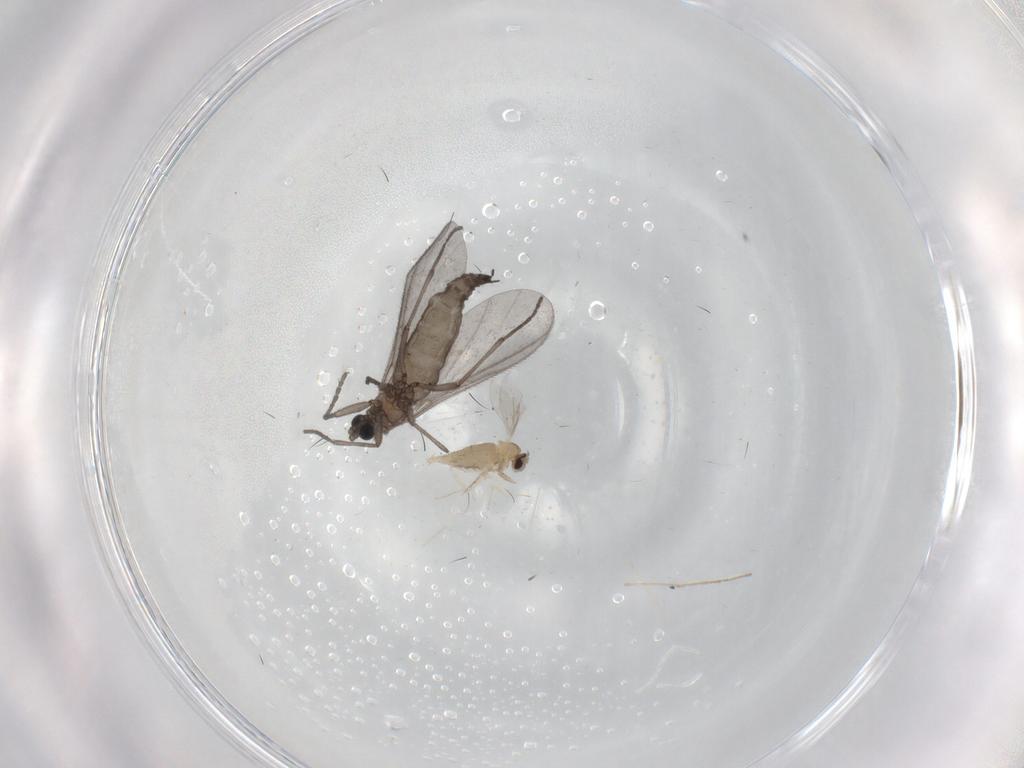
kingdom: Animalia
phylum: Arthropoda
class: Insecta
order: Diptera
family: Sciaridae
